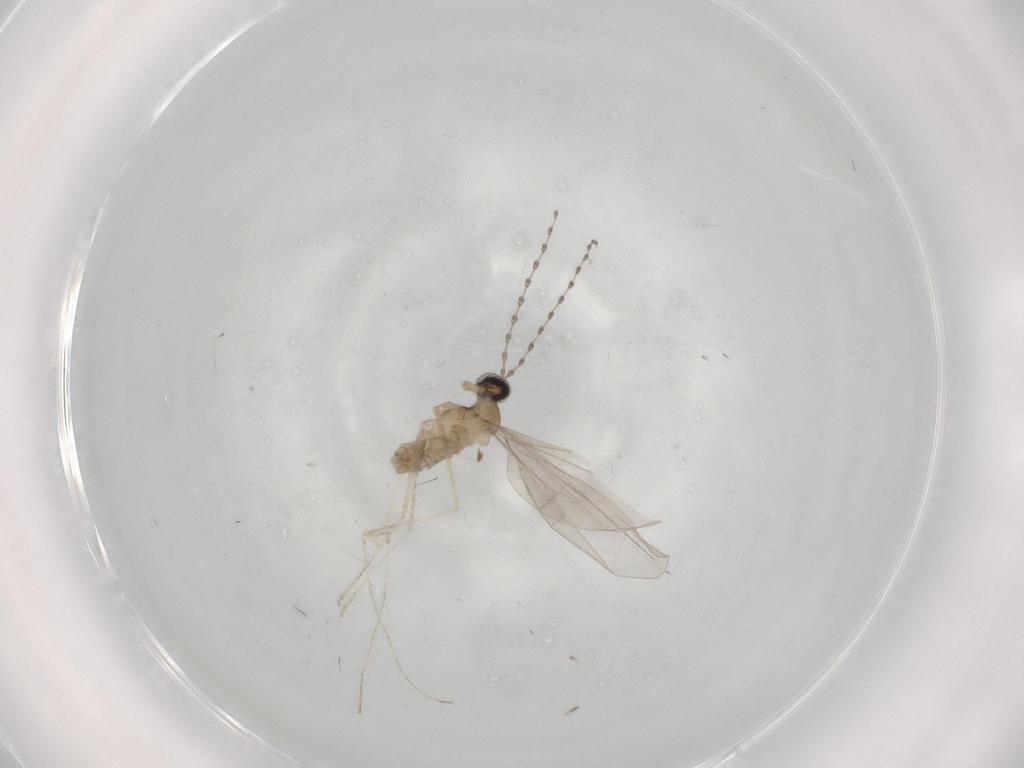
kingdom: Animalia
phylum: Arthropoda
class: Insecta
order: Diptera
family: Cecidomyiidae
